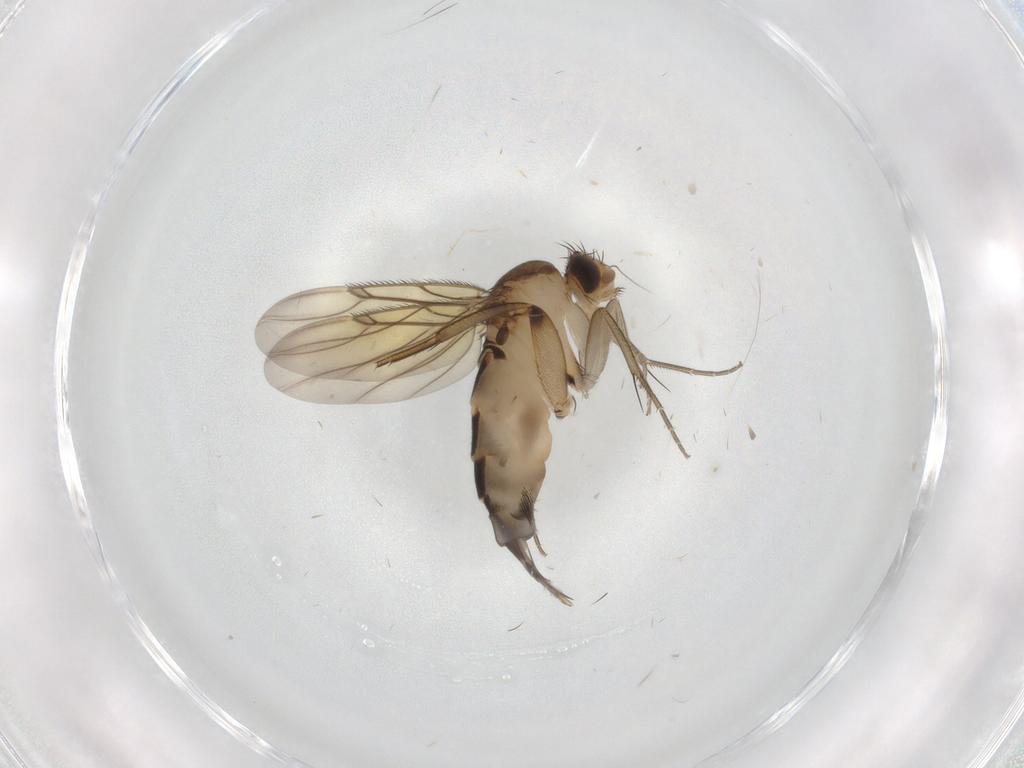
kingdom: Animalia
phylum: Arthropoda
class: Insecta
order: Diptera
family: Phoridae
